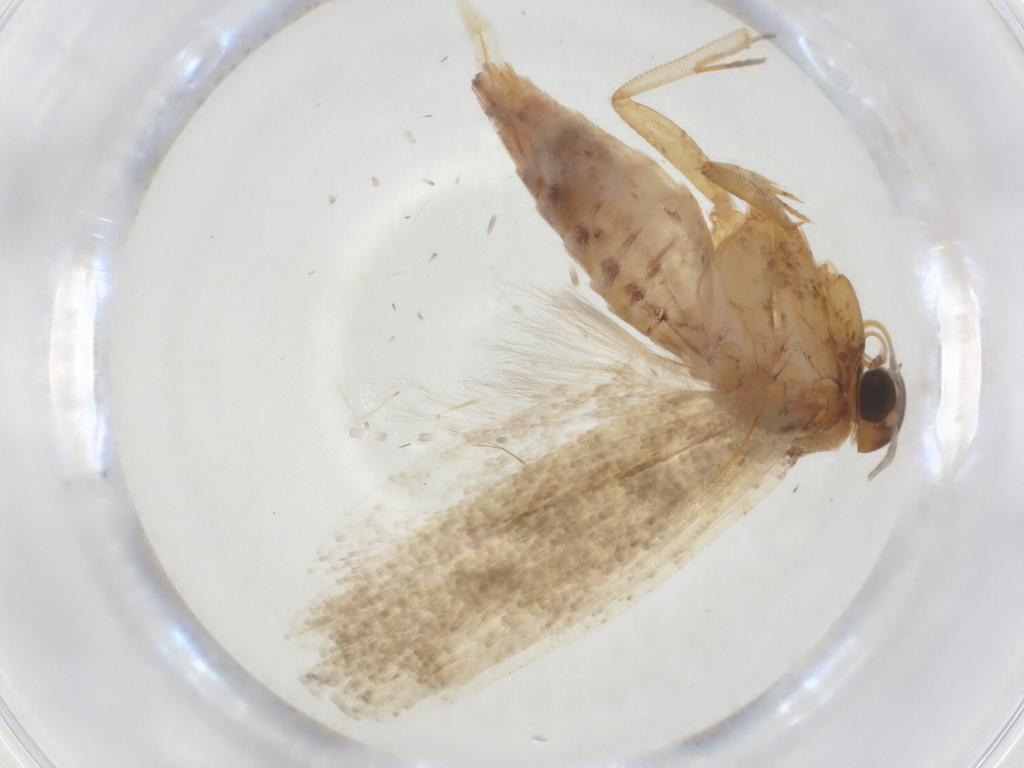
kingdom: Animalia
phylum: Arthropoda
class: Insecta
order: Lepidoptera
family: Gelechiidae
